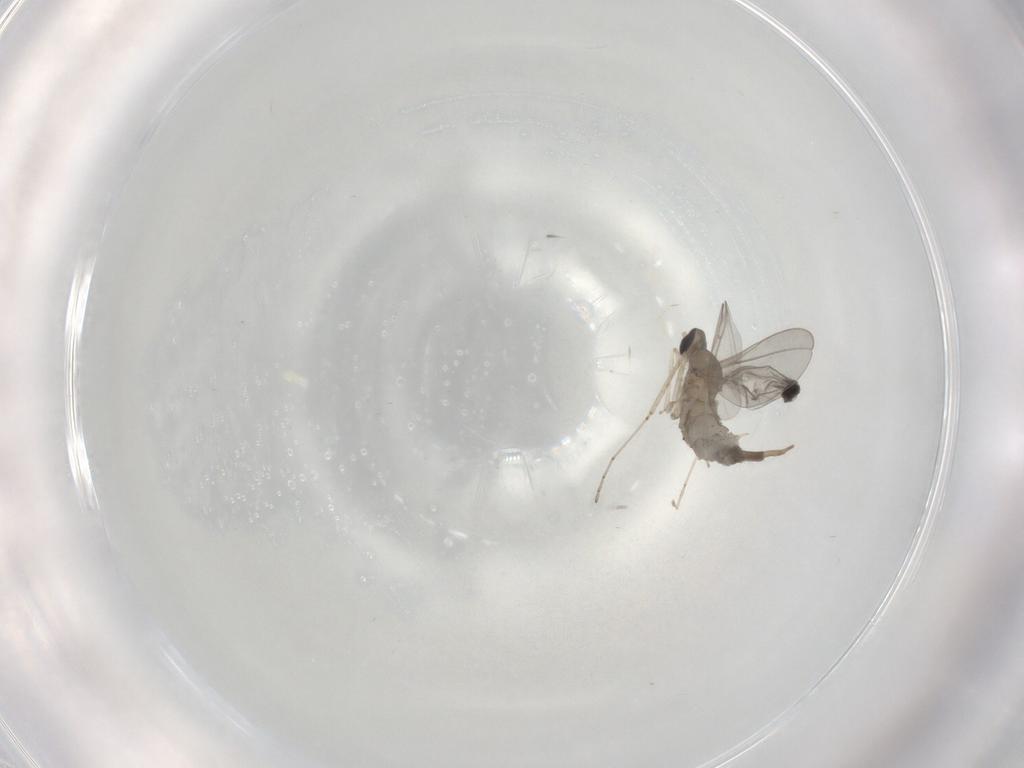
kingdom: Animalia
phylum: Arthropoda
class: Insecta
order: Diptera
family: Cecidomyiidae
